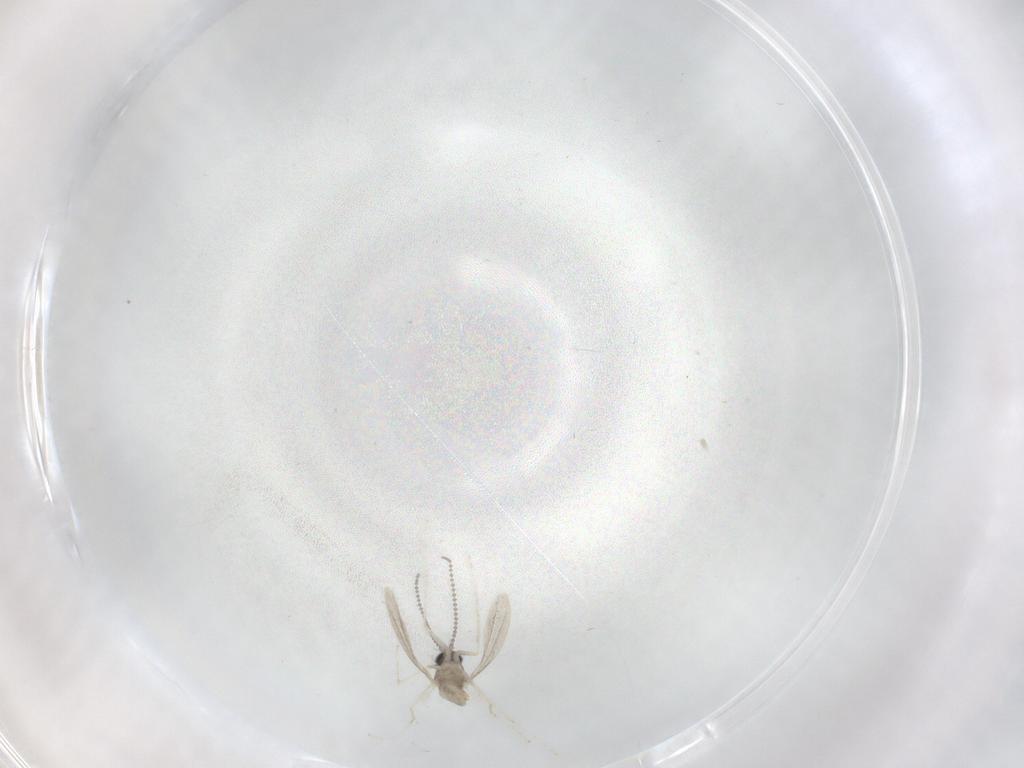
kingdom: Animalia
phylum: Arthropoda
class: Insecta
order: Diptera
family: Cecidomyiidae
